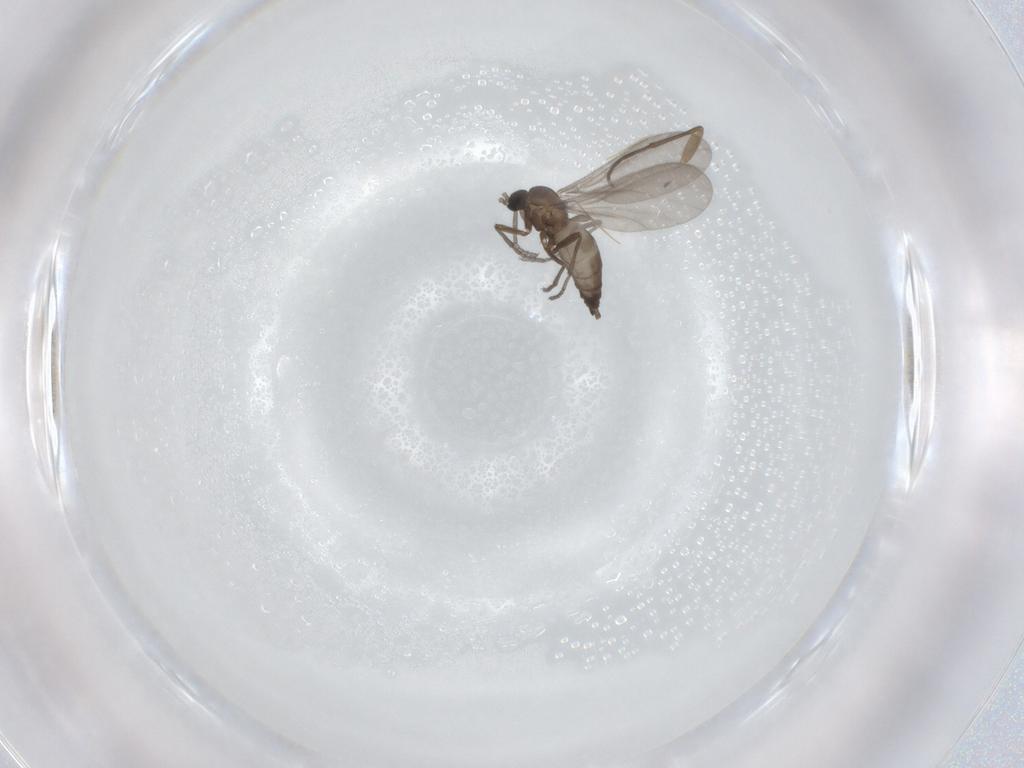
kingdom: Animalia
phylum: Arthropoda
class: Insecta
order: Diptera
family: Sciaridae
